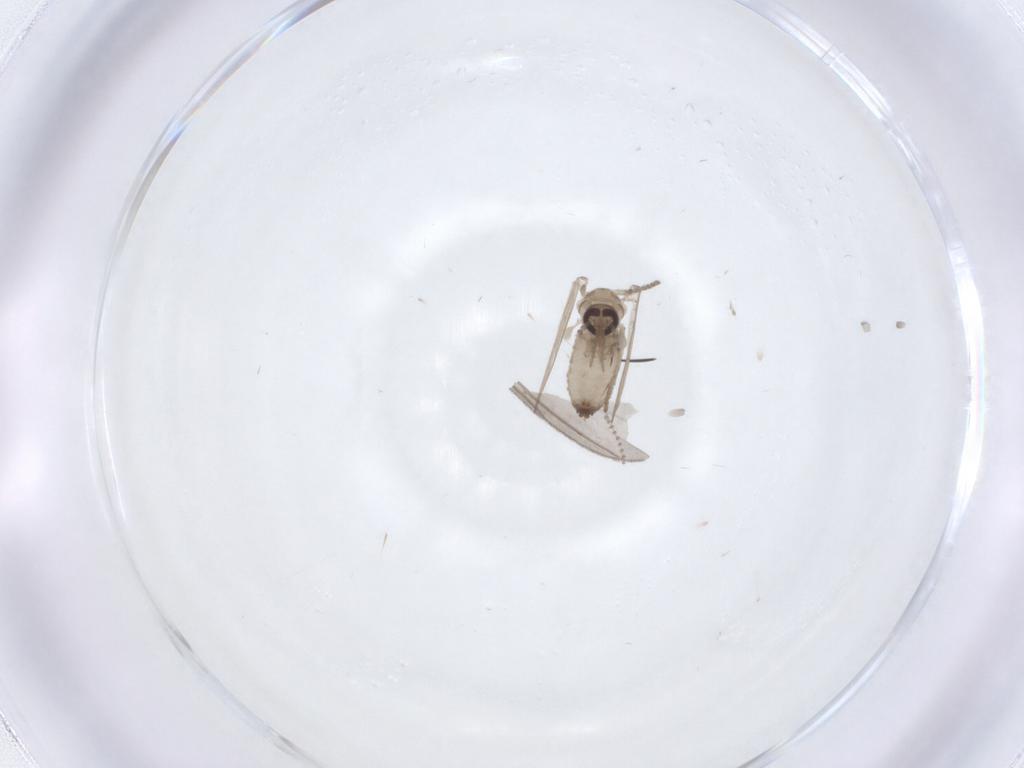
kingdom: Animalia
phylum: Arthropoda
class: Insecta
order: Diptera
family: Psychodidae
